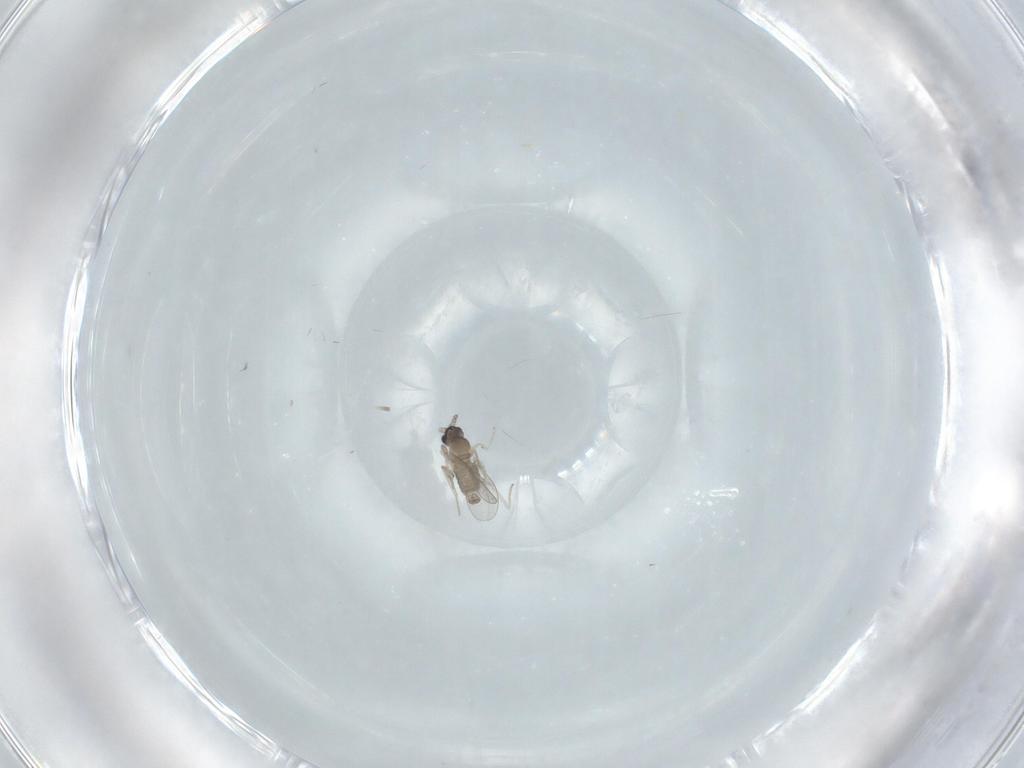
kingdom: Animalia
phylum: Arthropoda
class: Insecta
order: Diptera
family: Cecidomyiidae
